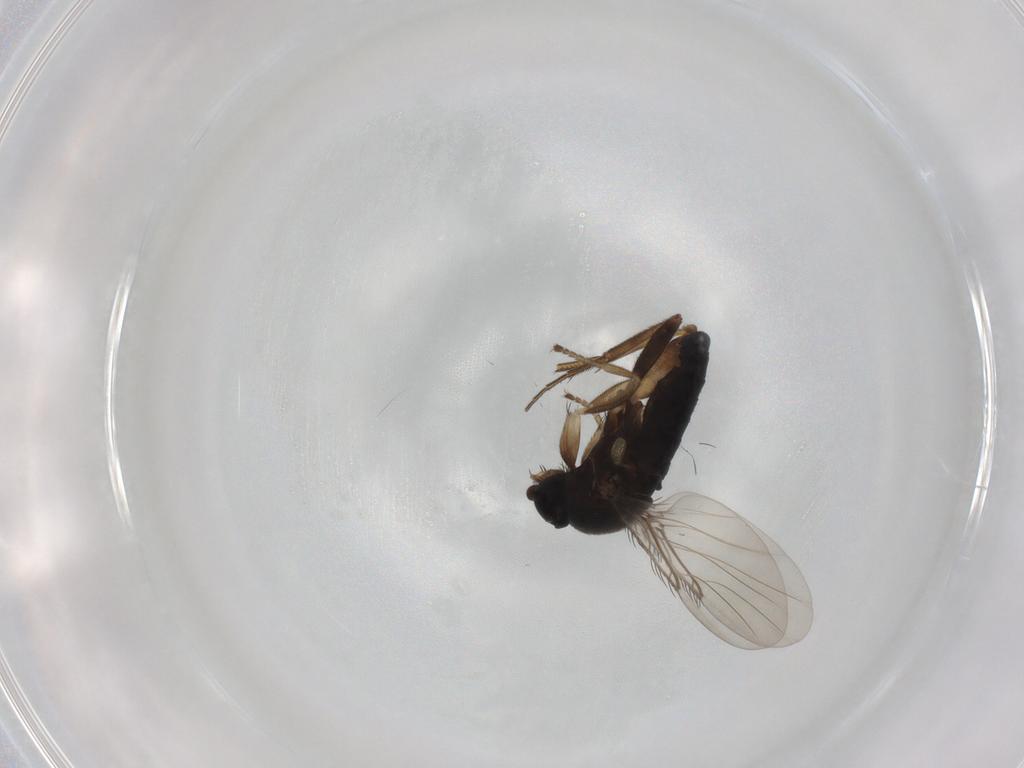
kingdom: Animalia
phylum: Arthropoda
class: Insecta
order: Diptera
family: Phoridae
